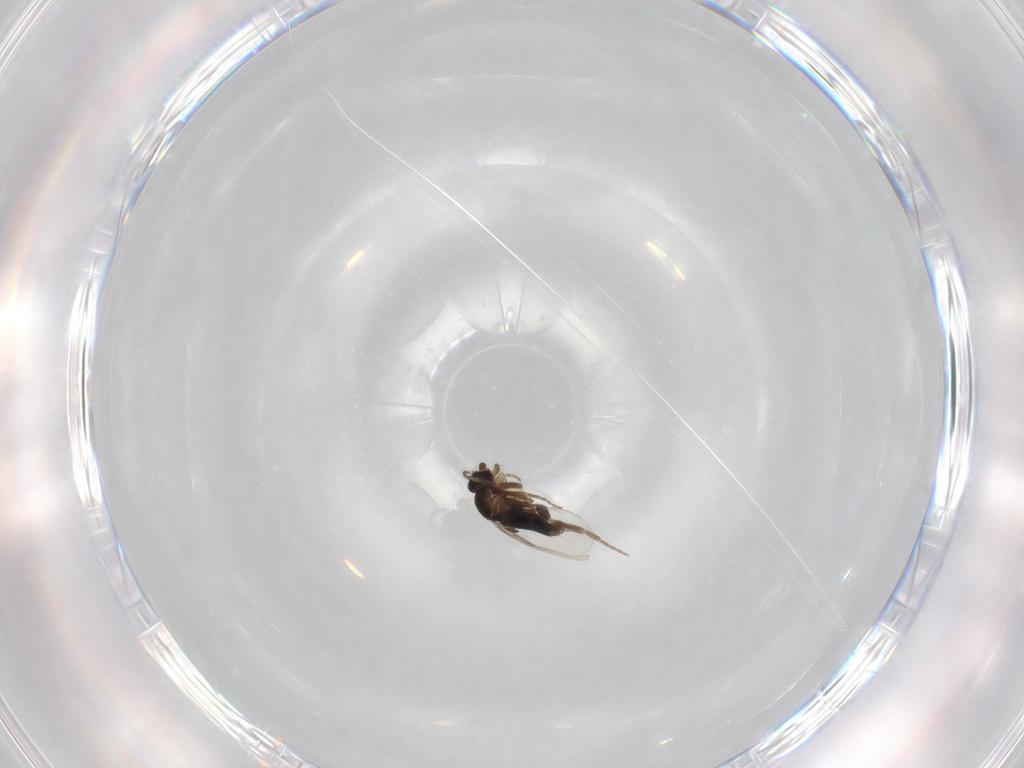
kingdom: Animalia
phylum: Arthropoda
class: Insecta
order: Diptera
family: Phoridae
